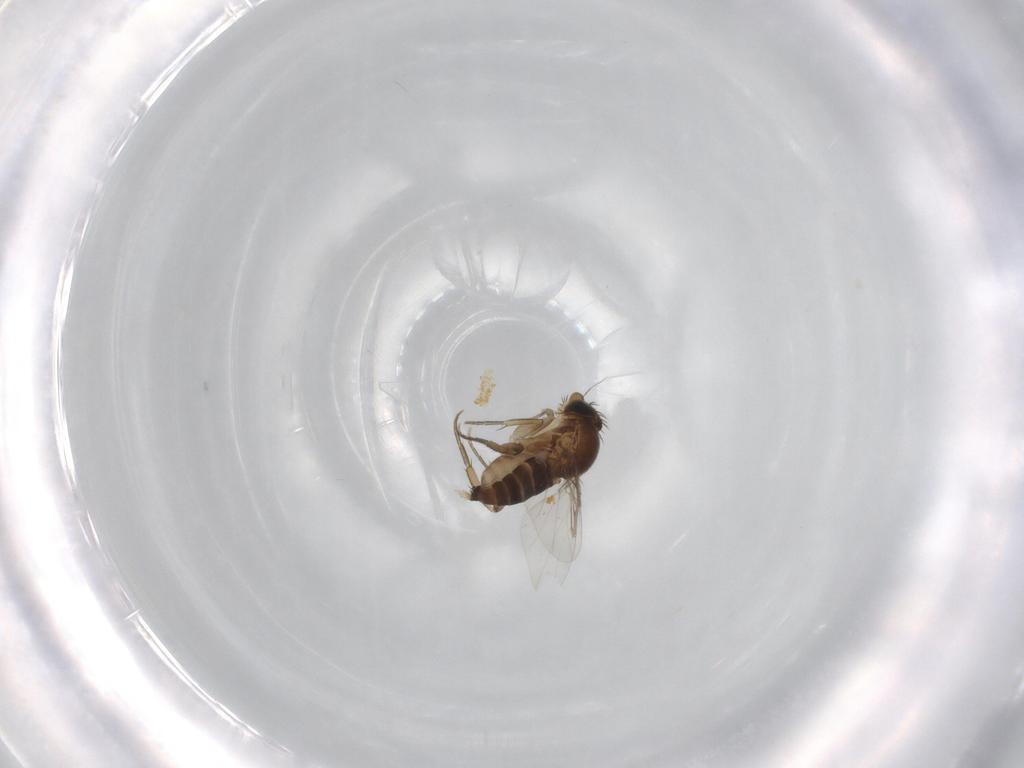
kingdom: Animalia
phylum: Arthropoda
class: Insecta
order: Diptera
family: Phoridae
